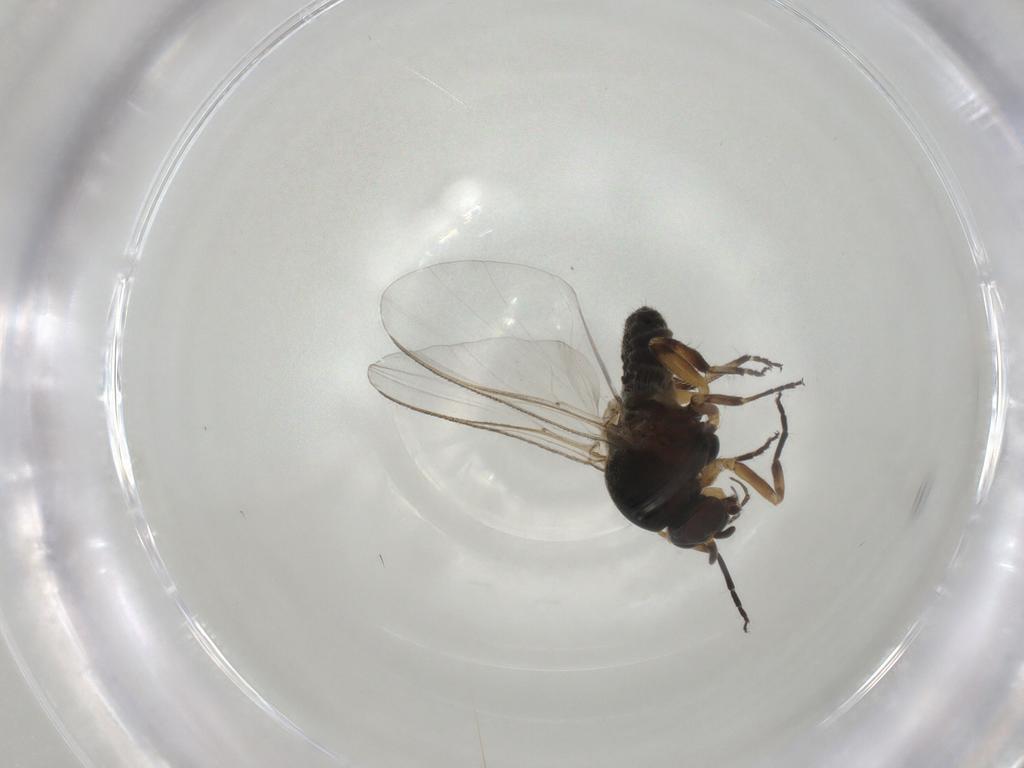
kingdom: Animalia
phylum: Arthropoda
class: Insecta
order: Diptera
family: Chironomidae
